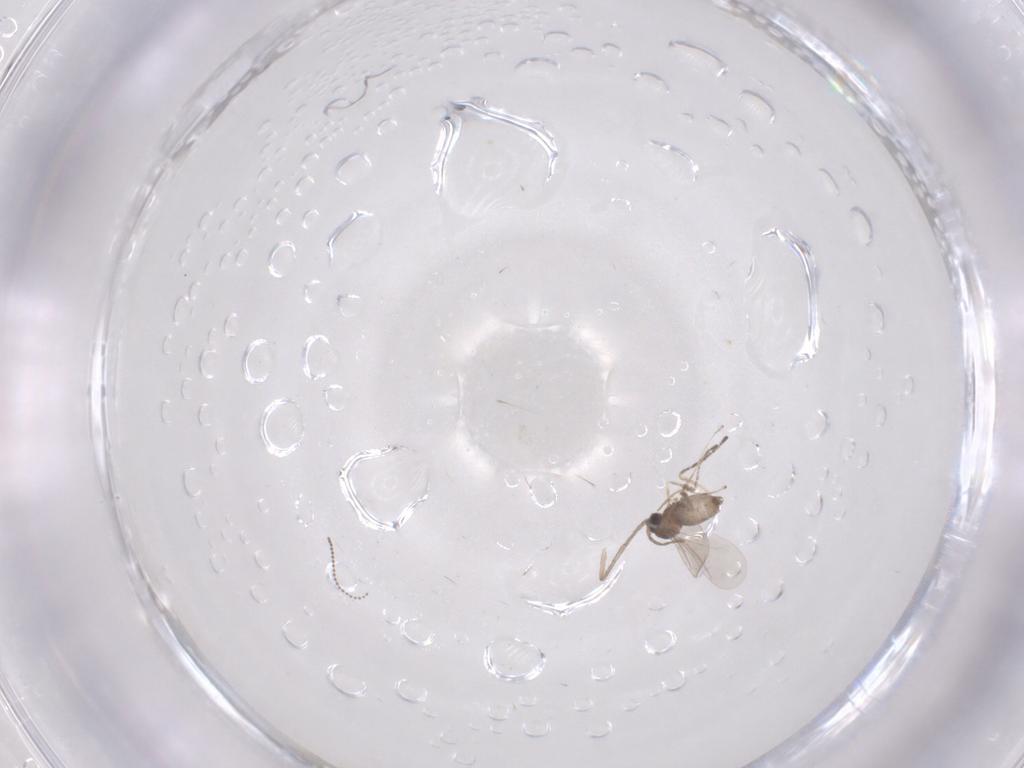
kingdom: Animalia
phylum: Arthropoda
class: Insecta
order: Diptera
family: Cecidomyiidae
